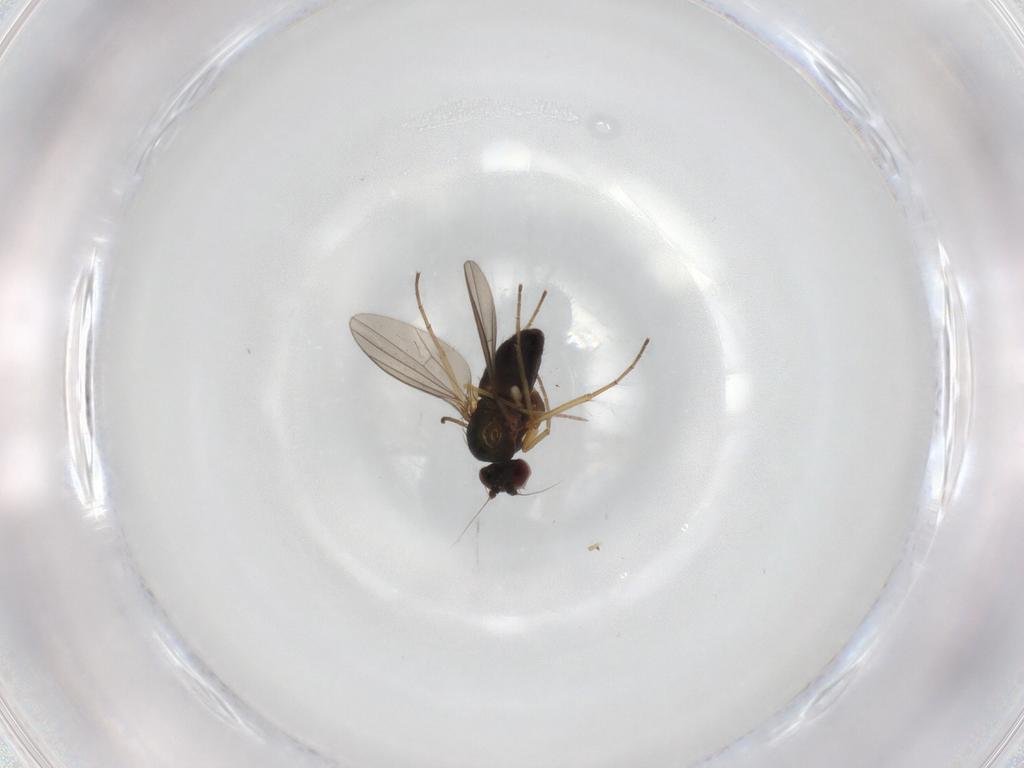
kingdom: Animalia
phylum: Arthropoda
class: Insecta
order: Diptera
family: Dolichopodidae
